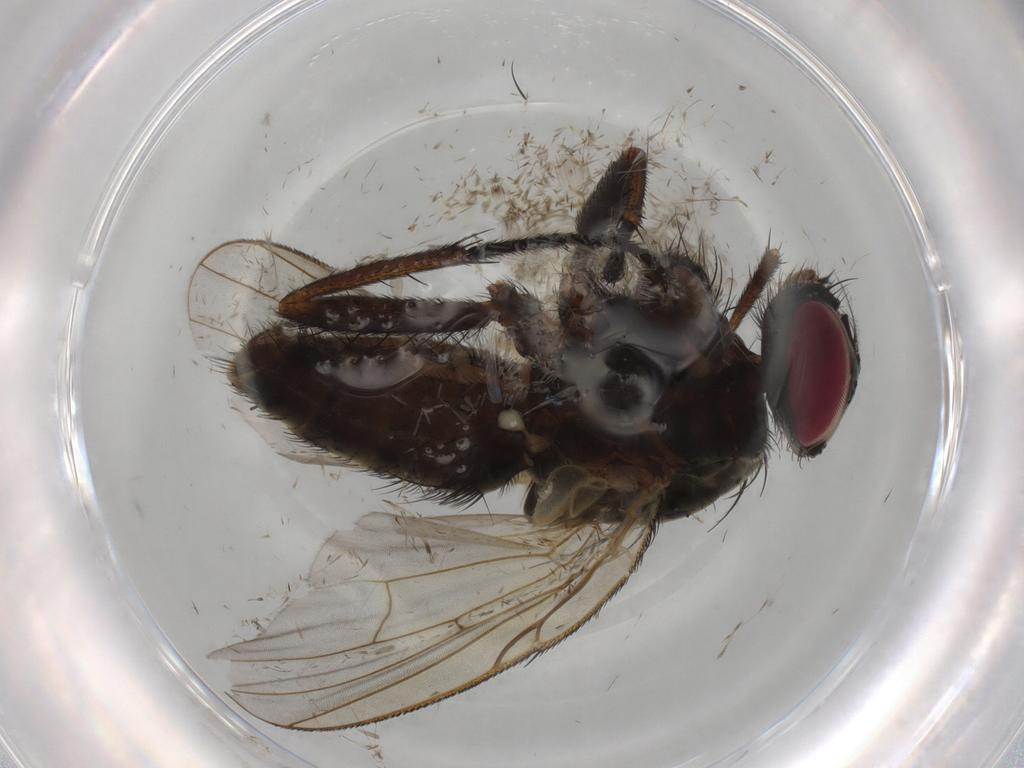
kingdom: Animalia
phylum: Arthropoda
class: Insecta
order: Diptera
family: Muscidae
